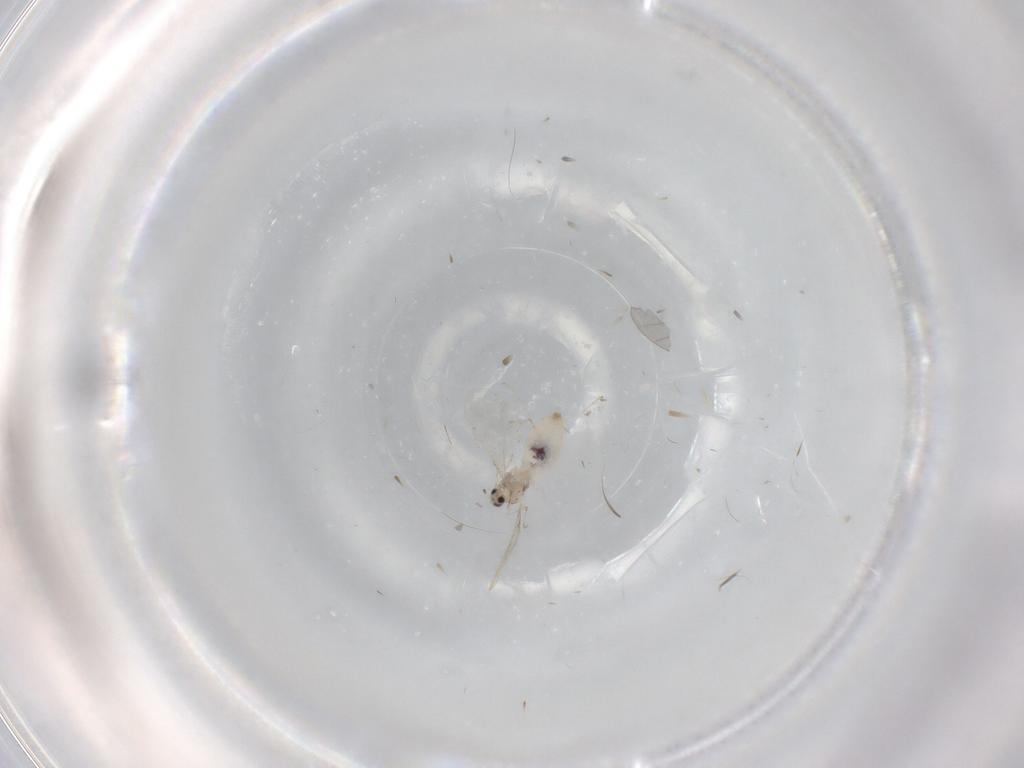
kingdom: Animalia
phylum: Arthropoda
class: Insecta
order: Diptera
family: Cecidomyiidae
